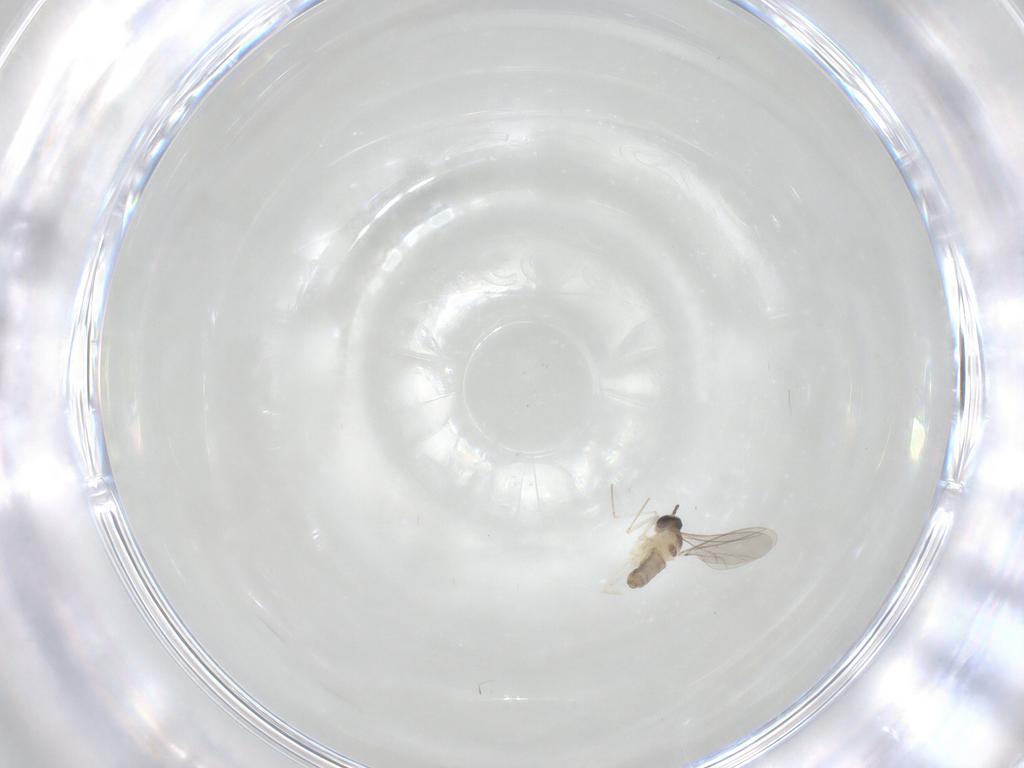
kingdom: Animalia
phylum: Arthropoda
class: Insecta
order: Diptera
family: Cecidomyiidae
